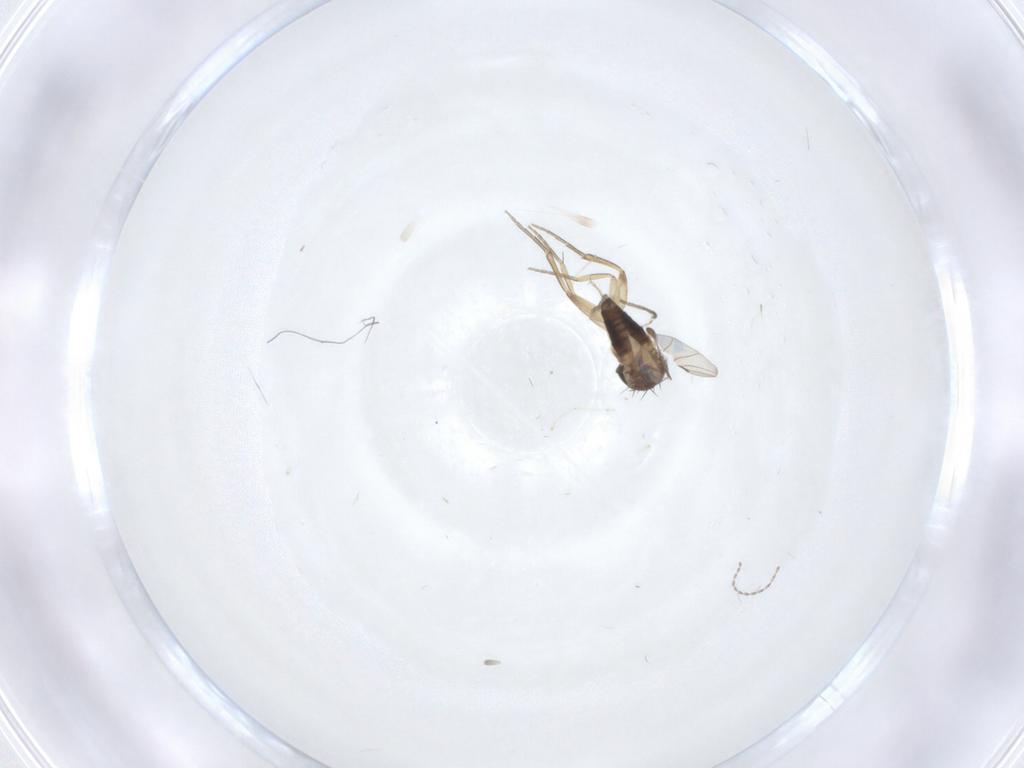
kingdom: Animalia
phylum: Arthropoda
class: Insecta
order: Diptera
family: Phoridae
